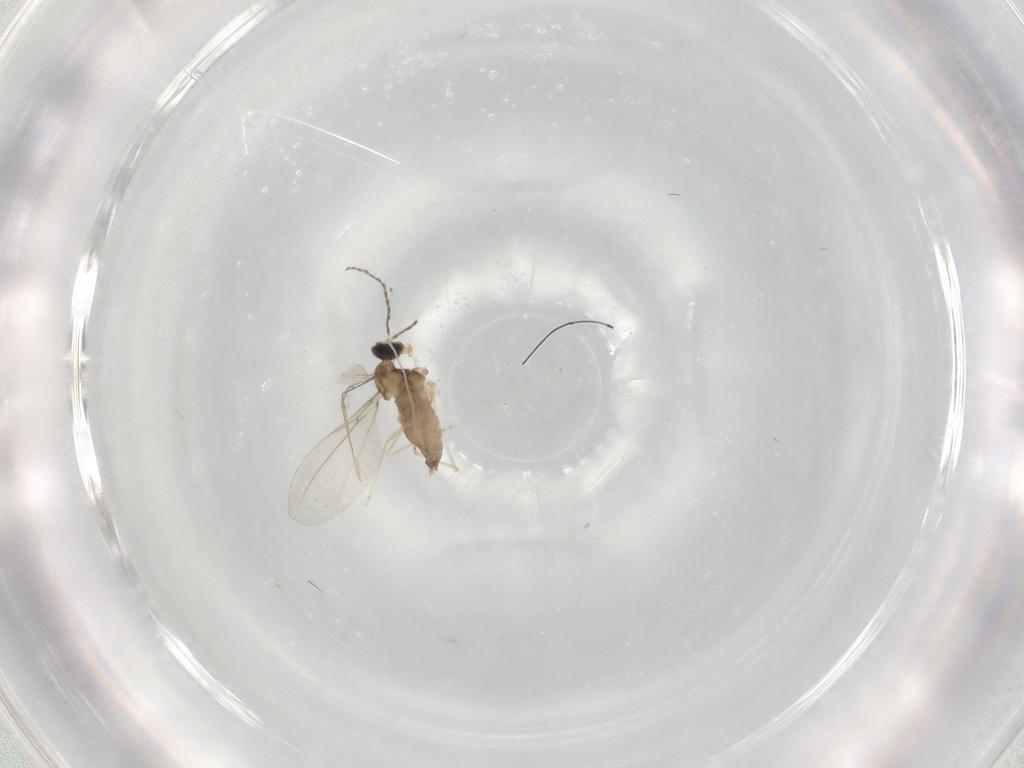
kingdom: Animalia
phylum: Arthropoda
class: Insecta
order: Diptera
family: Cecidomyiidae
